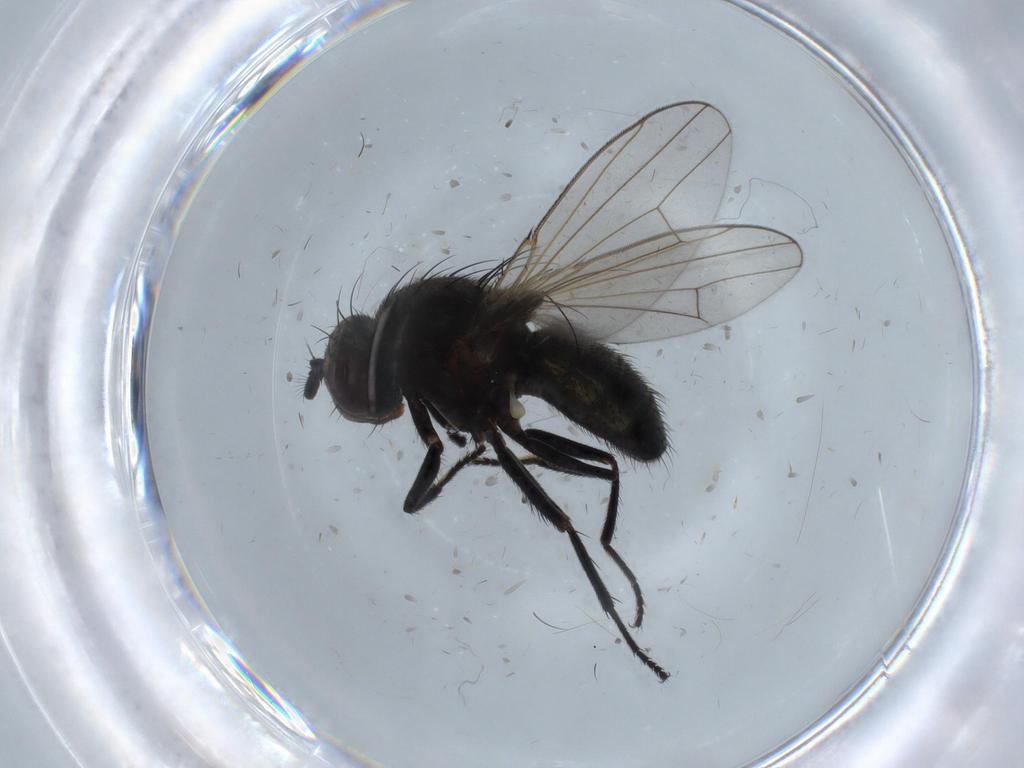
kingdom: Animalia
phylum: Arthropoda
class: Insecta
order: Diptera
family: Ephydridae
